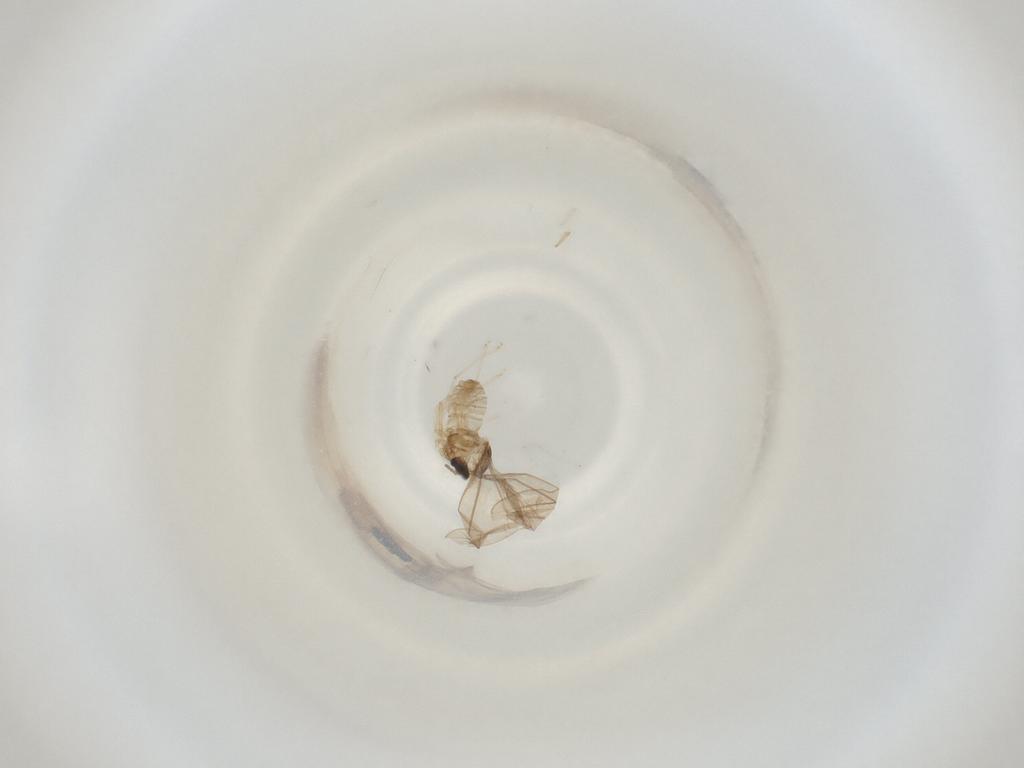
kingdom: Animalia
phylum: Arthropoda
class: Insecta
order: Diptera
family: Cecidomyiidae
